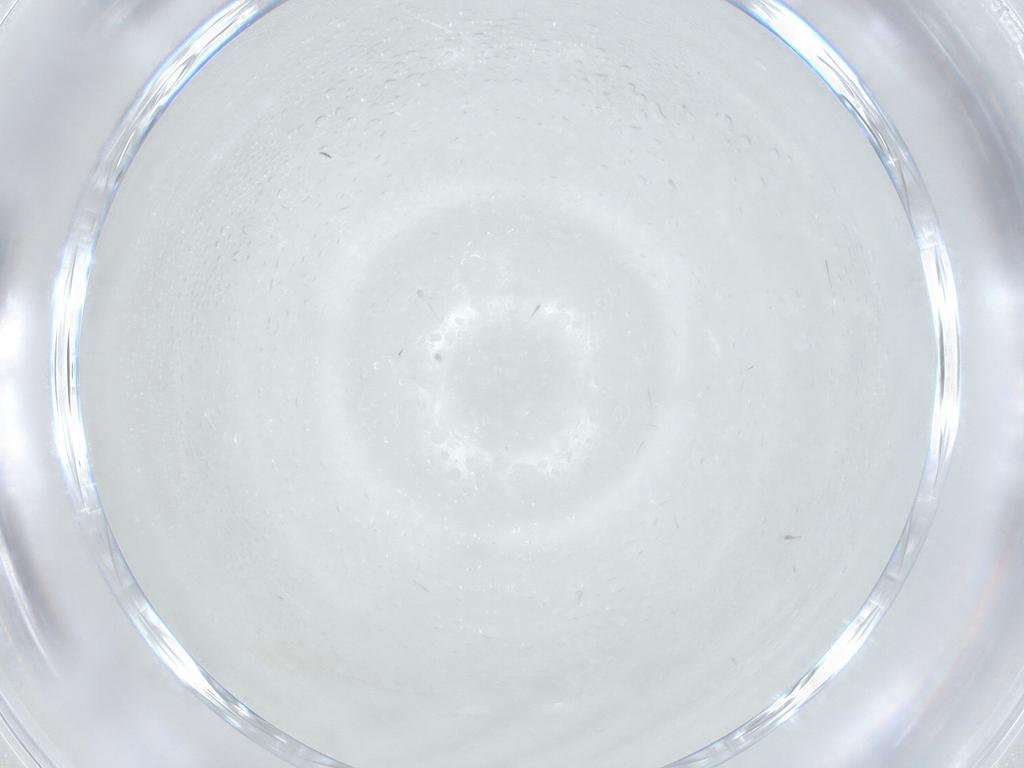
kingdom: Animalia
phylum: Arthropoda
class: Insecta
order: Diptera
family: Cecidomyiidae
